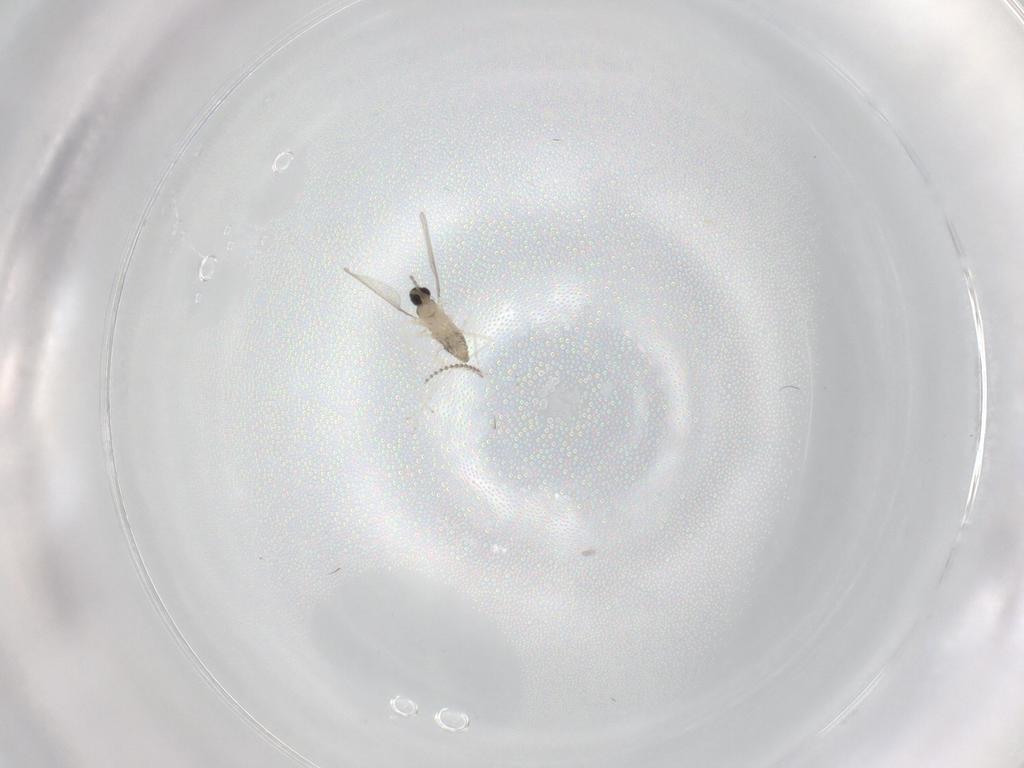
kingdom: Animalia
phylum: Arthropoda
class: Insecta
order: Diptera
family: Cecidomyiidae
